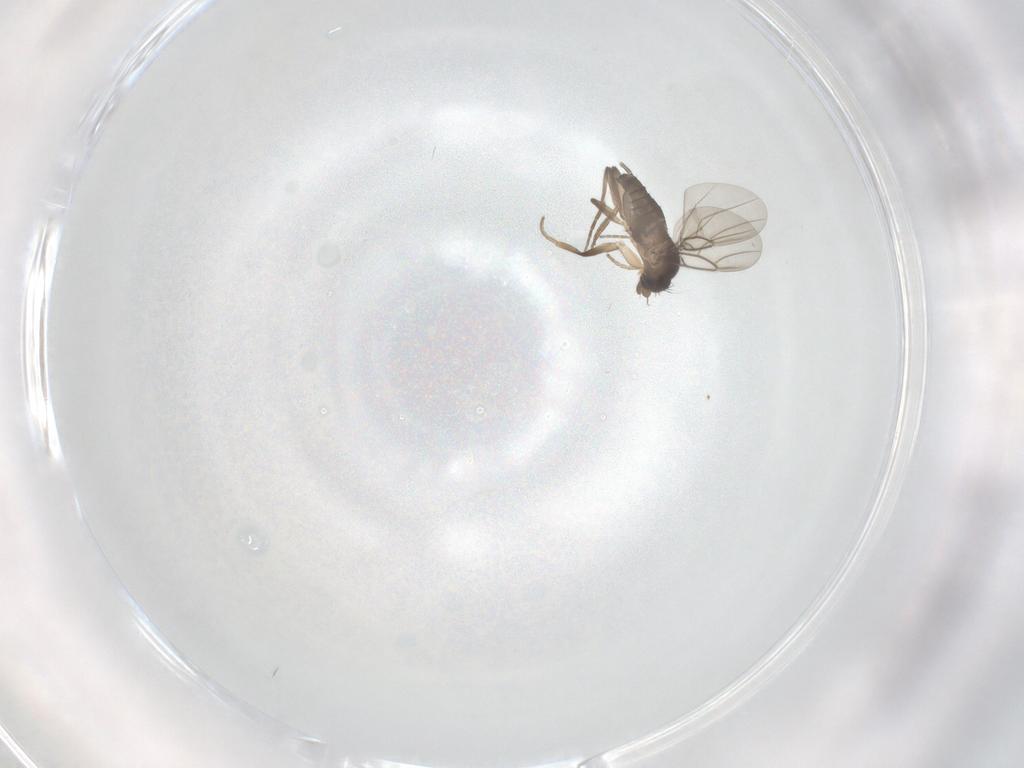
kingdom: Animalia
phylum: Arthropoda
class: Insecta
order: Diptera
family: Phoridae
